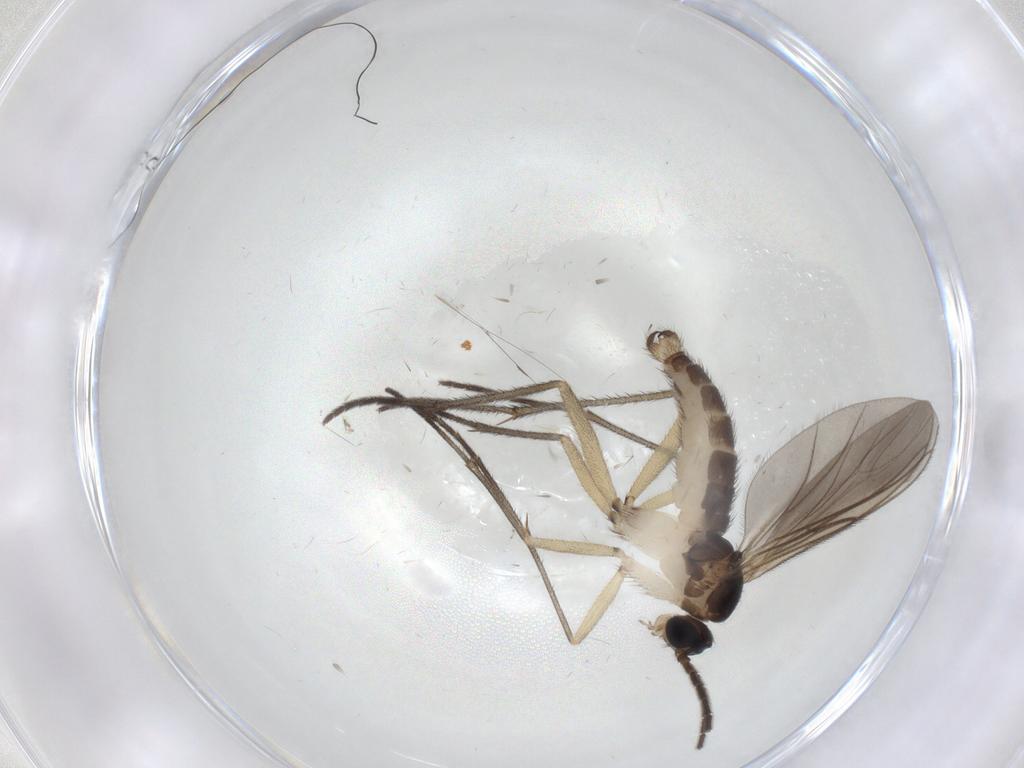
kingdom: Animalia
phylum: Arthropoda
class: Insecta
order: Diptera
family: Sciaridae
